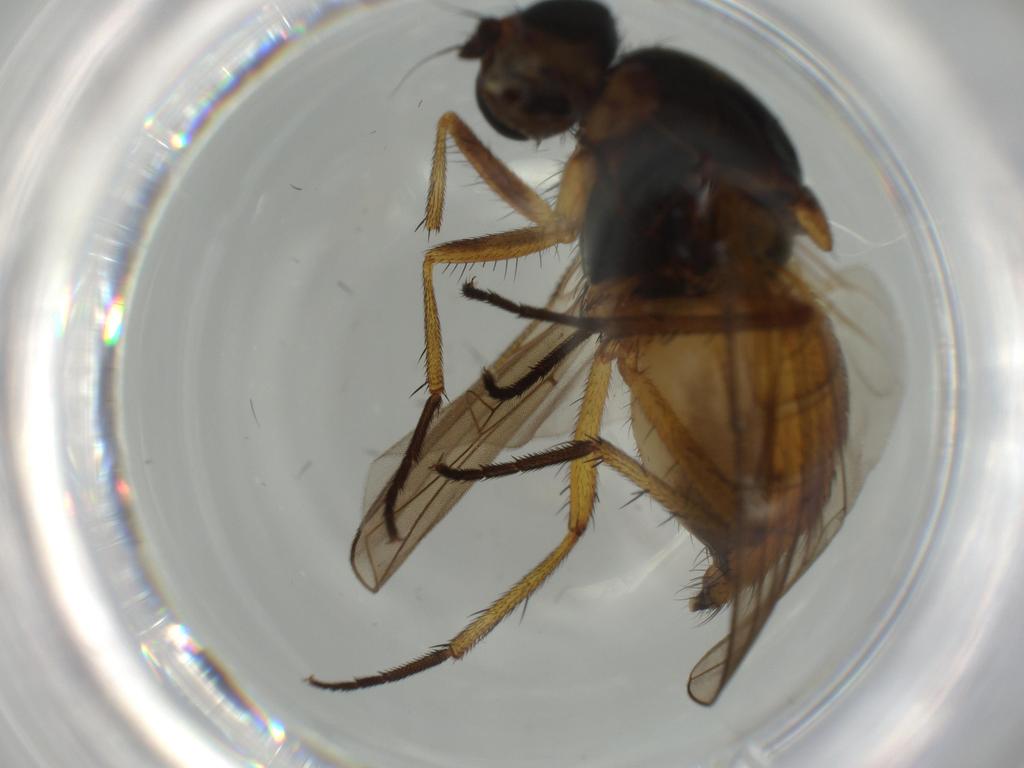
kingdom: Animalia
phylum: Arthropoda
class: Insecta
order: Diptera
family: Cecidomyiidae
